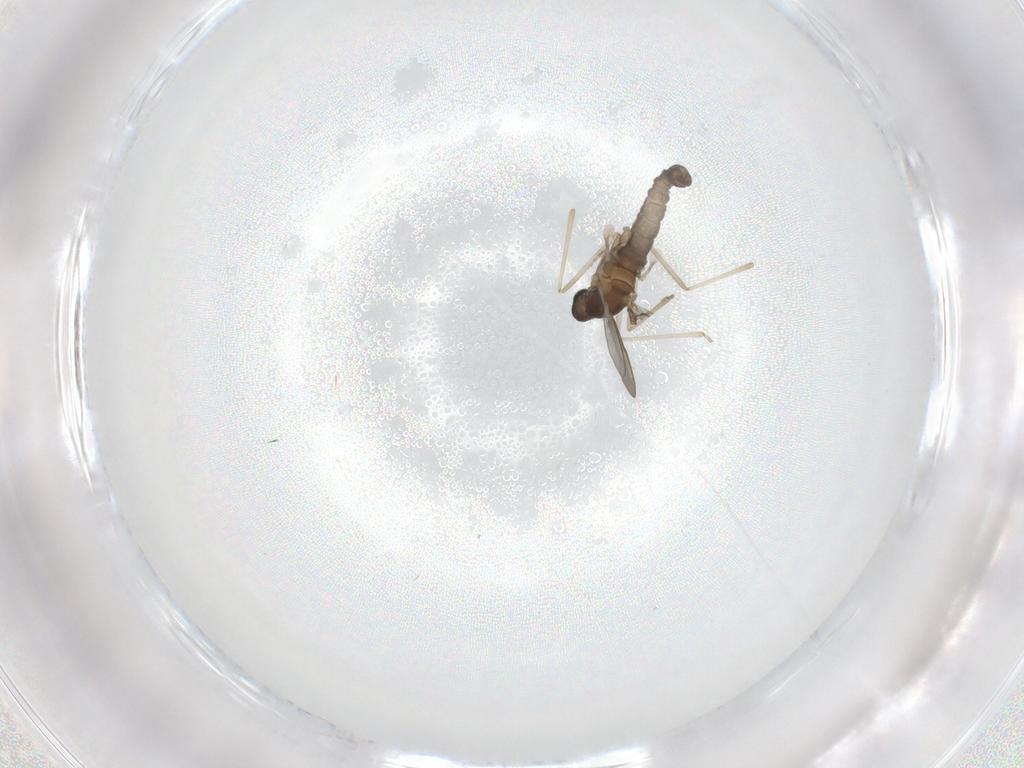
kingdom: Animalia
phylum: Arthropoda
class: Insecta
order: Diptera
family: Cecidomyiidae
